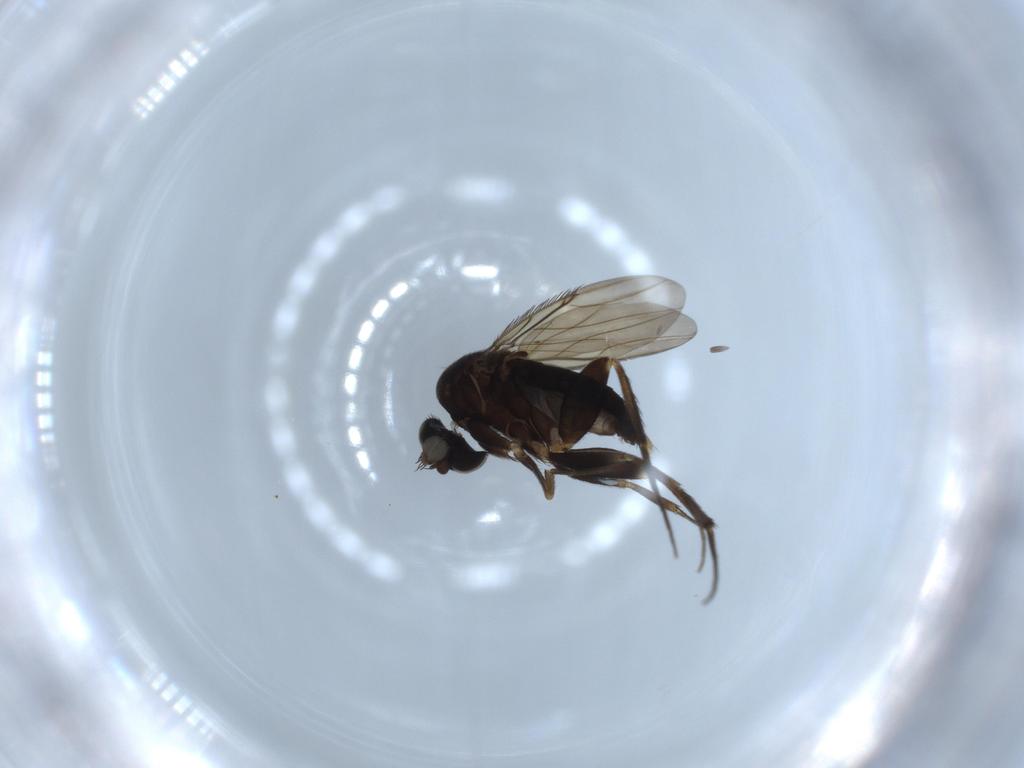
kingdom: Animalia
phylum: Arthropoda
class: Insecta
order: Diptera
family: Phoridae
